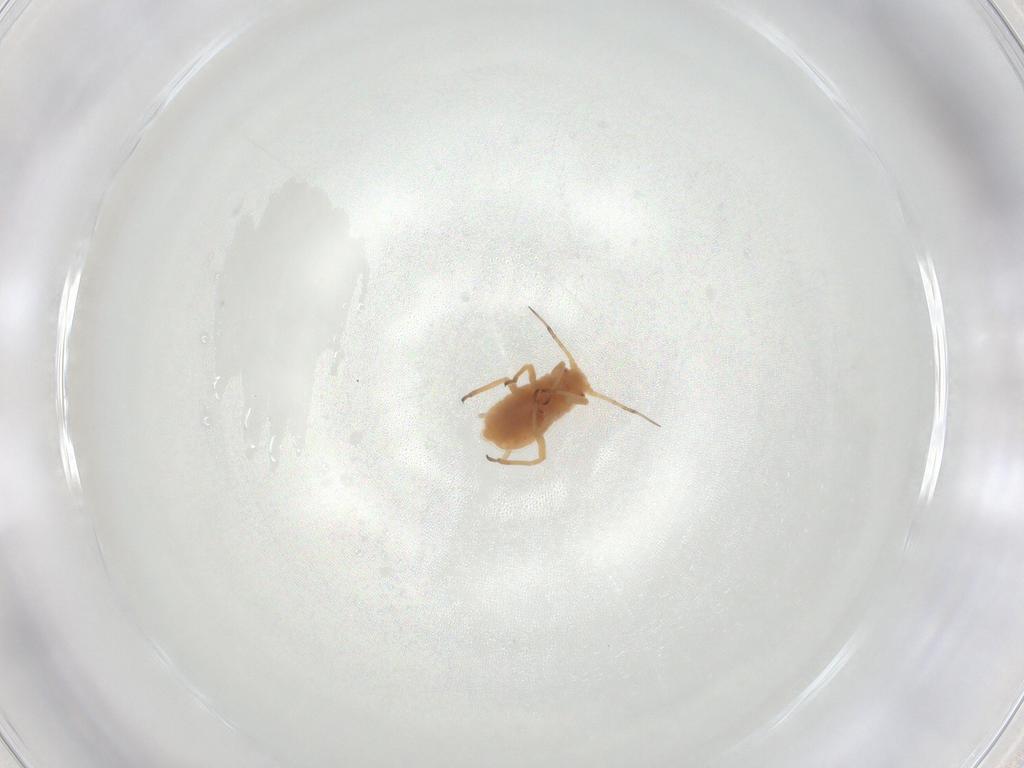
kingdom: Animalia
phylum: Arthropoda
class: Insecta
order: Hemiptera
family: Aphididae
